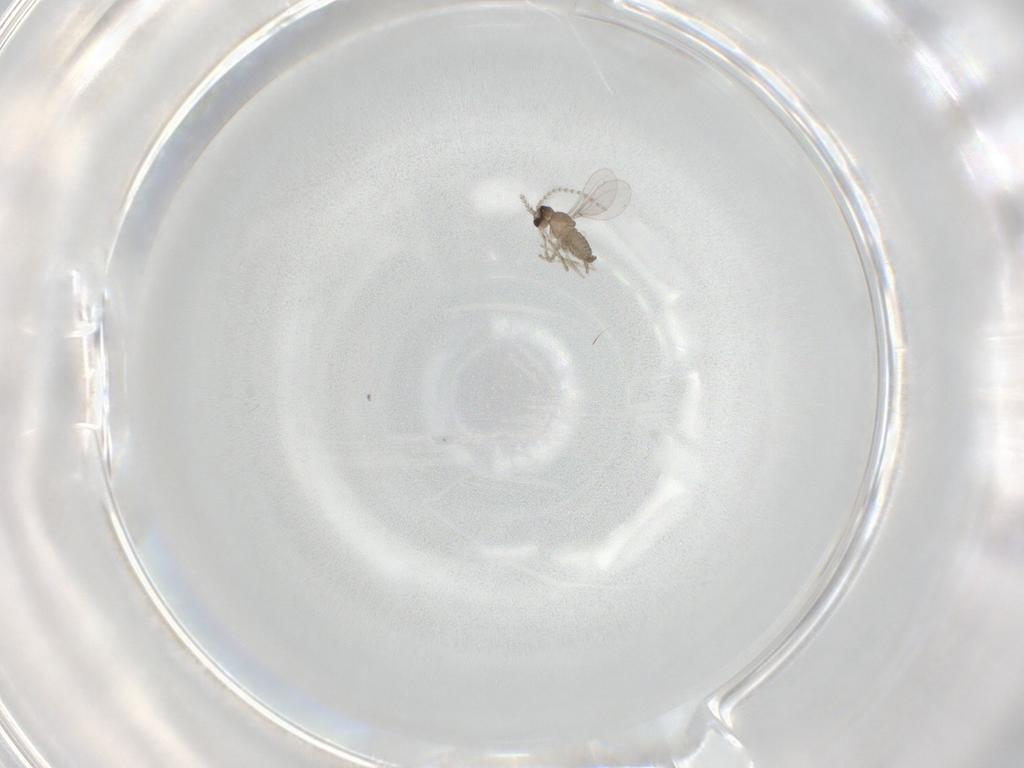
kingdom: Animalia
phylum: Arthropoda
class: Insecta
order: Diptera
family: Cecidomyiidae
